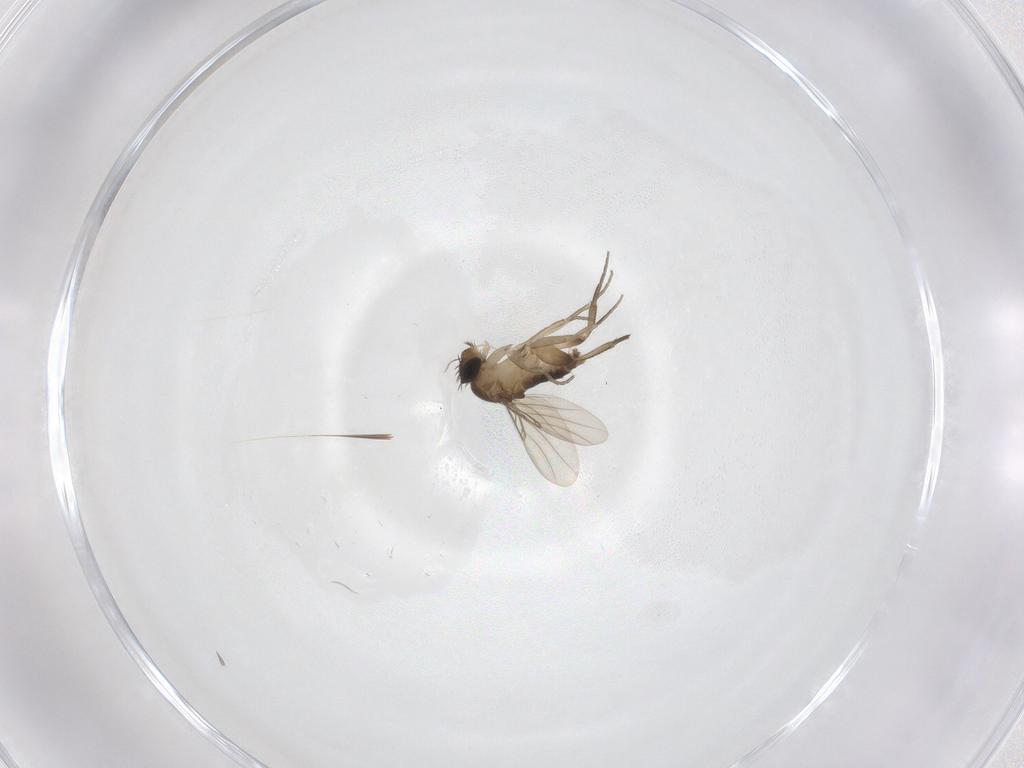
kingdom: Animalia
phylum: Arthropoda
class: Insecta
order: Diptera
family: Phoridae
